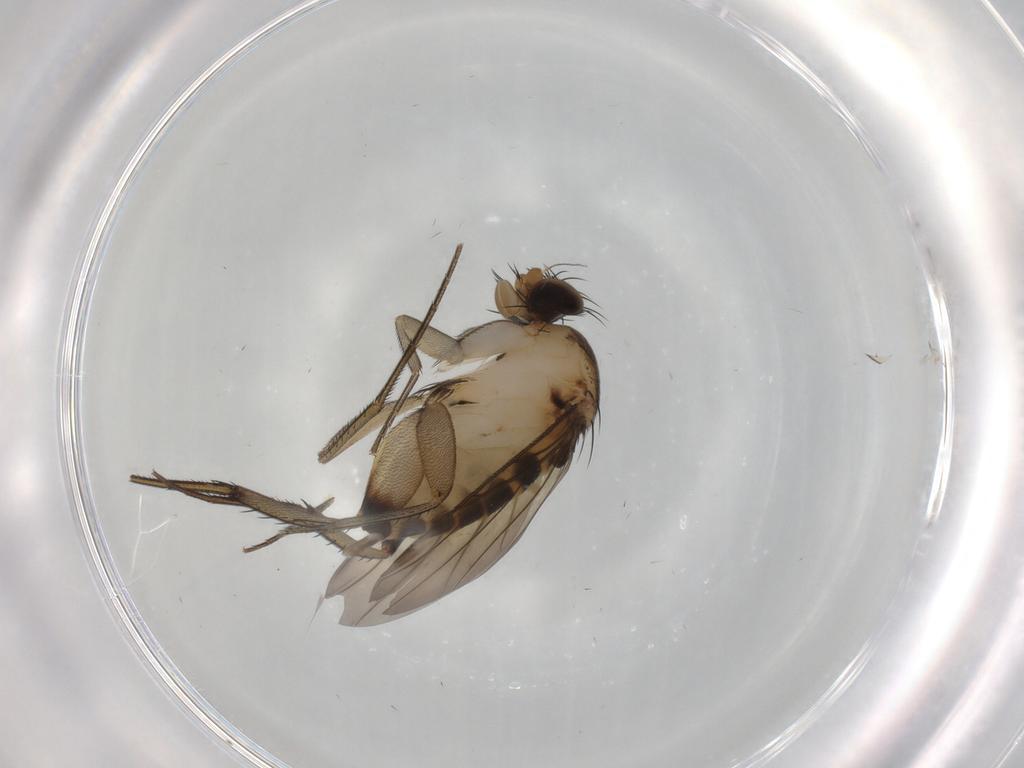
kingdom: Animalia
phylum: Arthropoda
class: Insecta
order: Diptera
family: Phoridae
